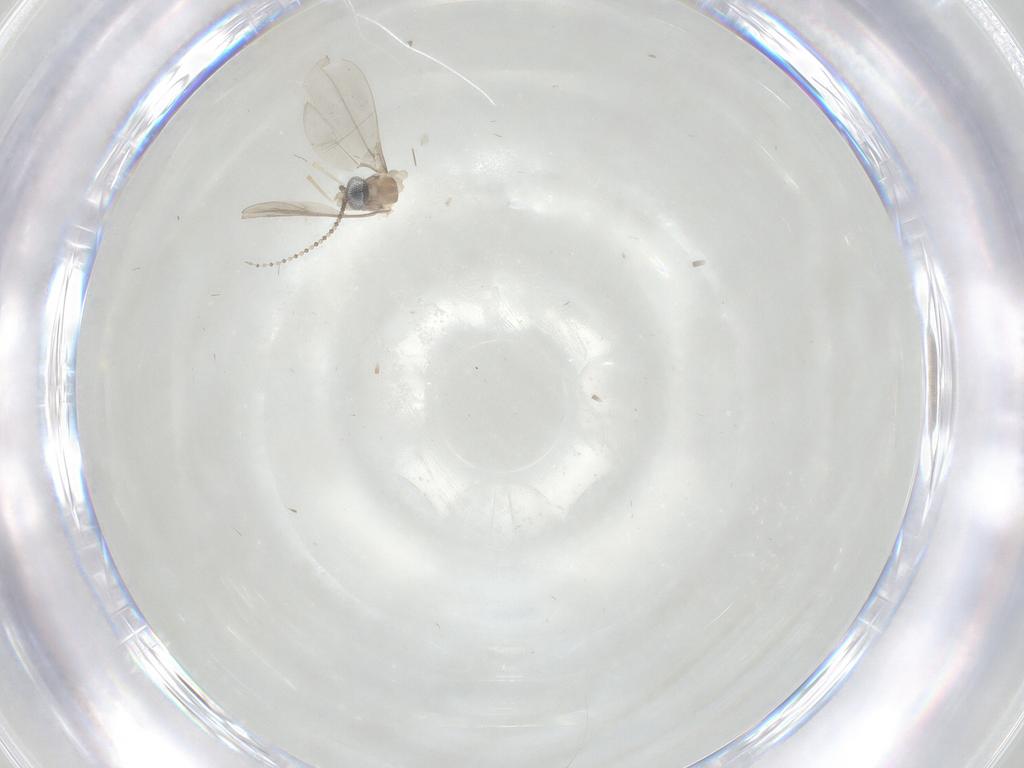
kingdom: Animalia
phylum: Arthropoda
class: Insecta
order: Diptera
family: Cecidomyiidae
